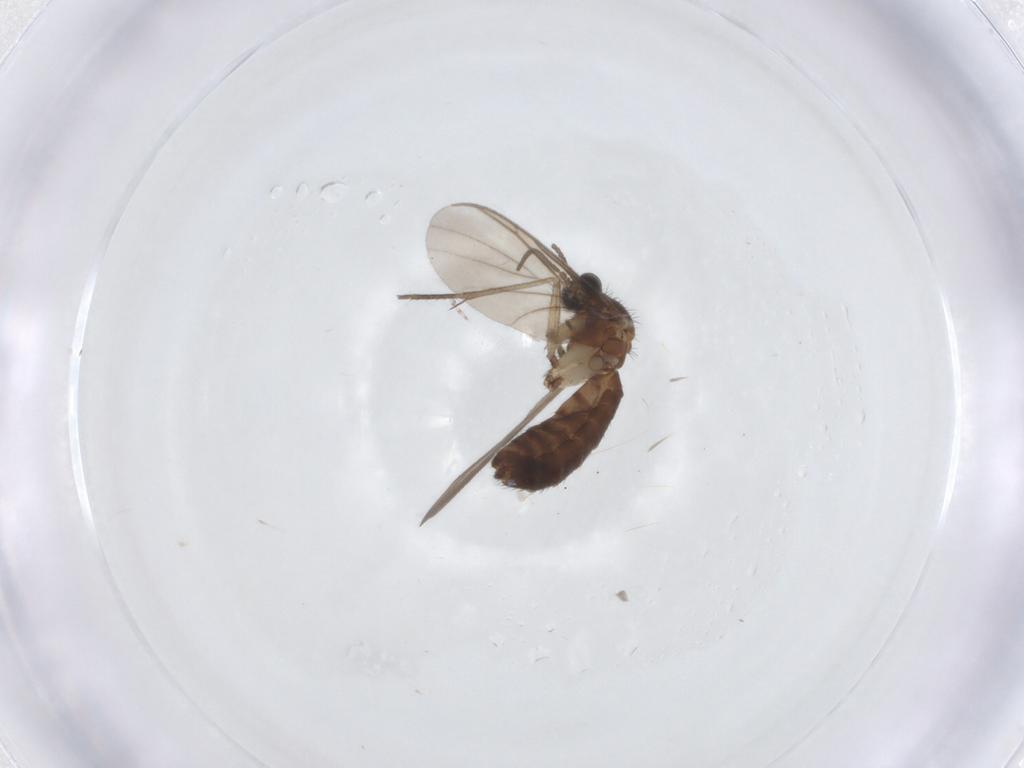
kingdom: Animalia
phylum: Arthropoda
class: Insecta
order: Diptera
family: Keroplatidae
